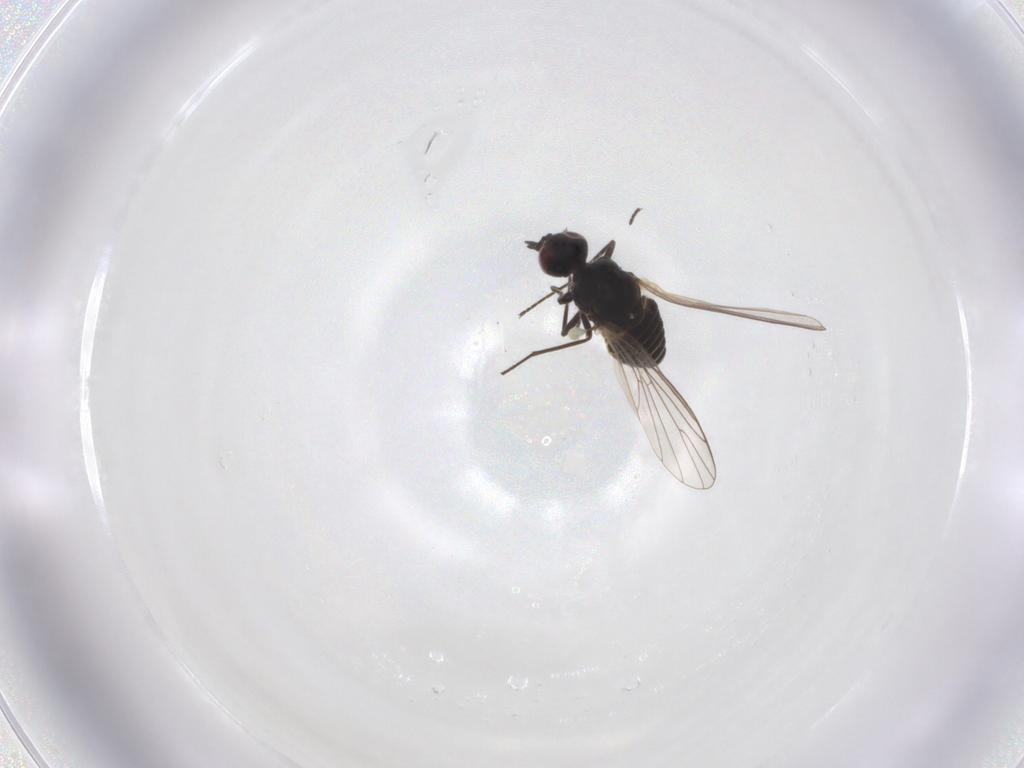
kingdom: Animalia
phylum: Arthropoda
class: Insecta
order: Diptera
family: Bombyliidae
